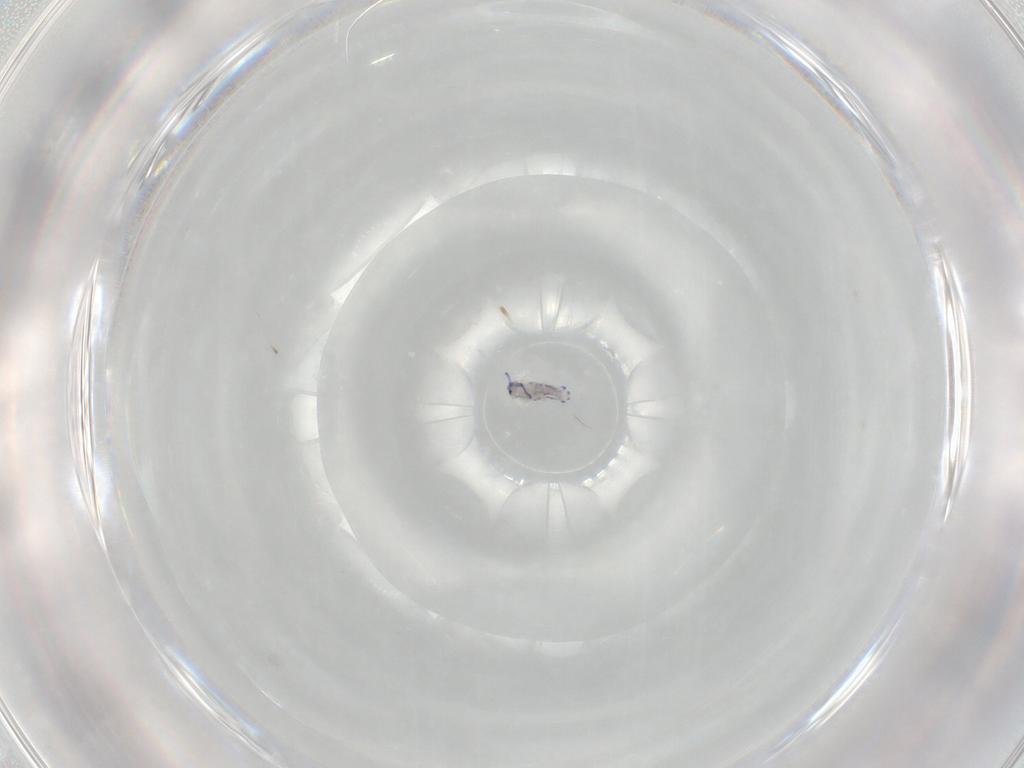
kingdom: Animalia
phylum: Arthropoda
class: Collembola
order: Entomobryomorpha
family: Entomobryidae
